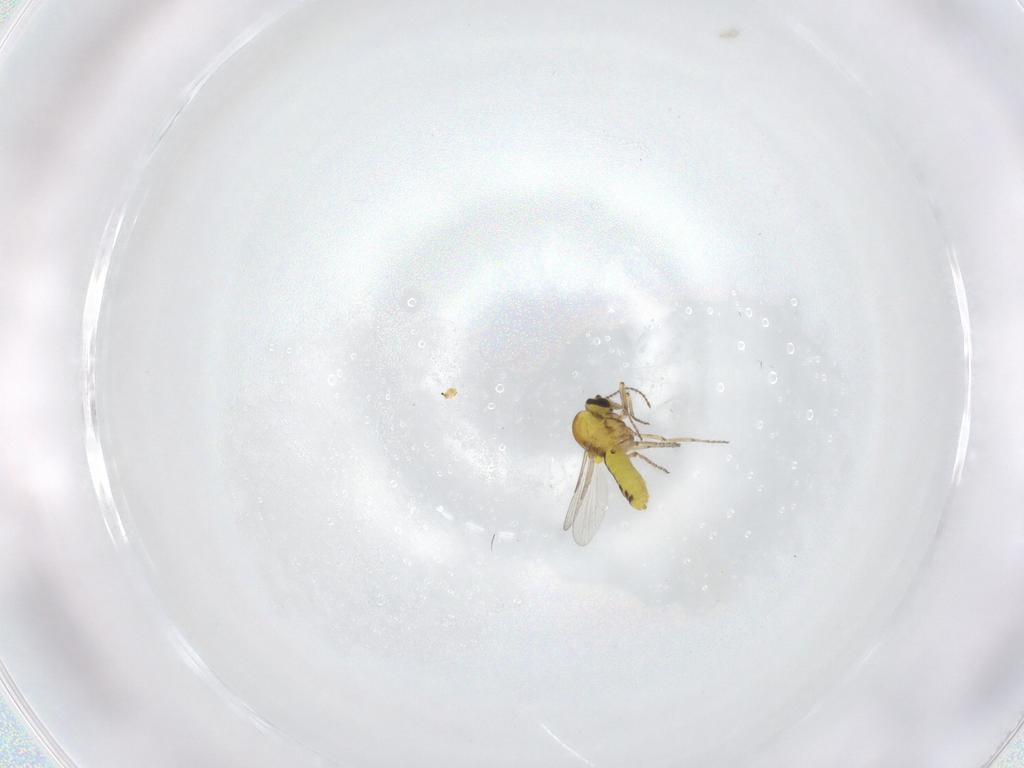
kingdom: Animalia
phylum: Arthropoda
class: Insecta
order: Diptera
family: Ceratopogonidae
